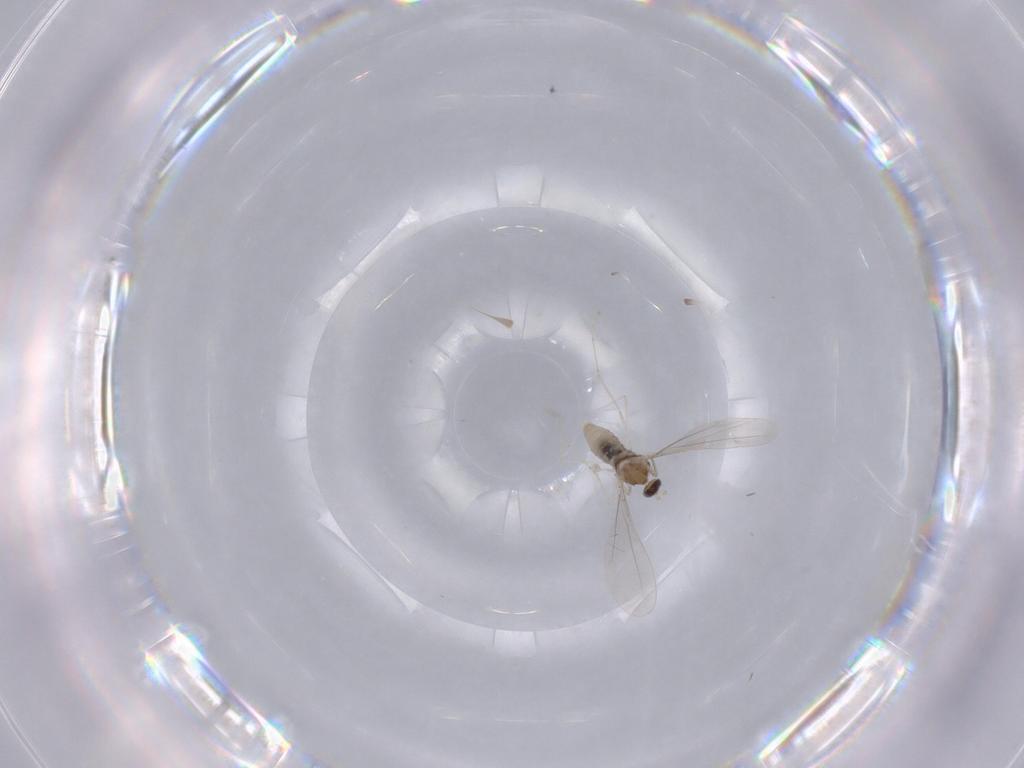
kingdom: Animalia
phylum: Arthropoda
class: Insecta
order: Diptera
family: Cecidomyiidae
